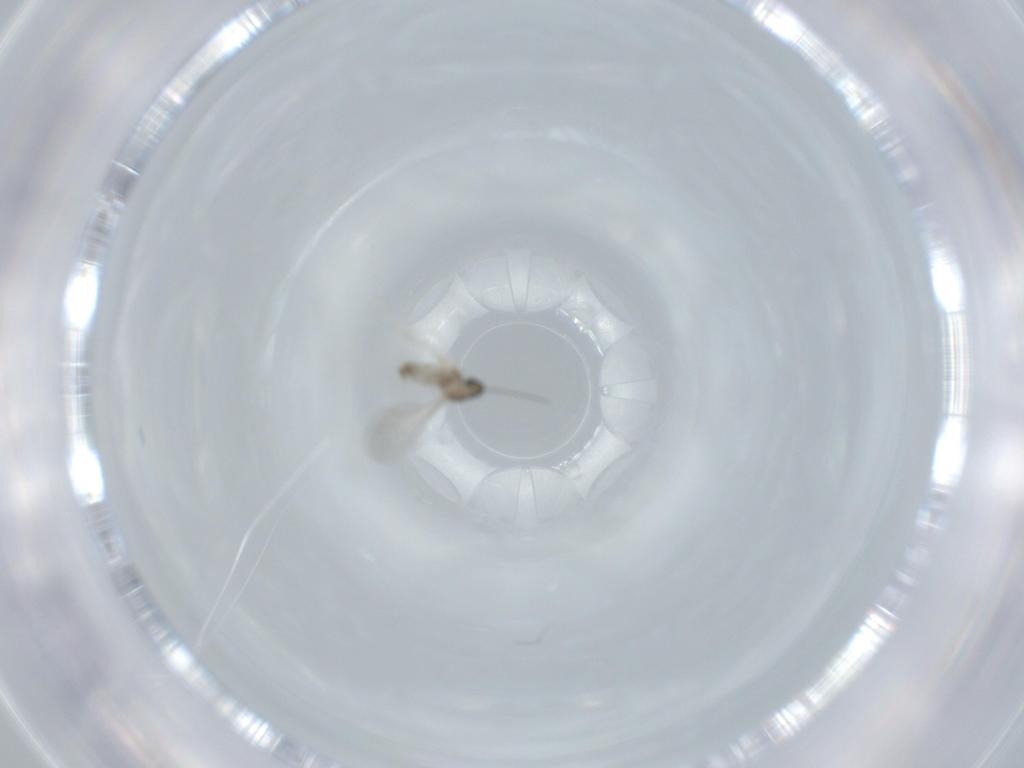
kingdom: Animalia
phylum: Arthropoda
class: Insecta
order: Diptera
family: Cecidomyiidae
